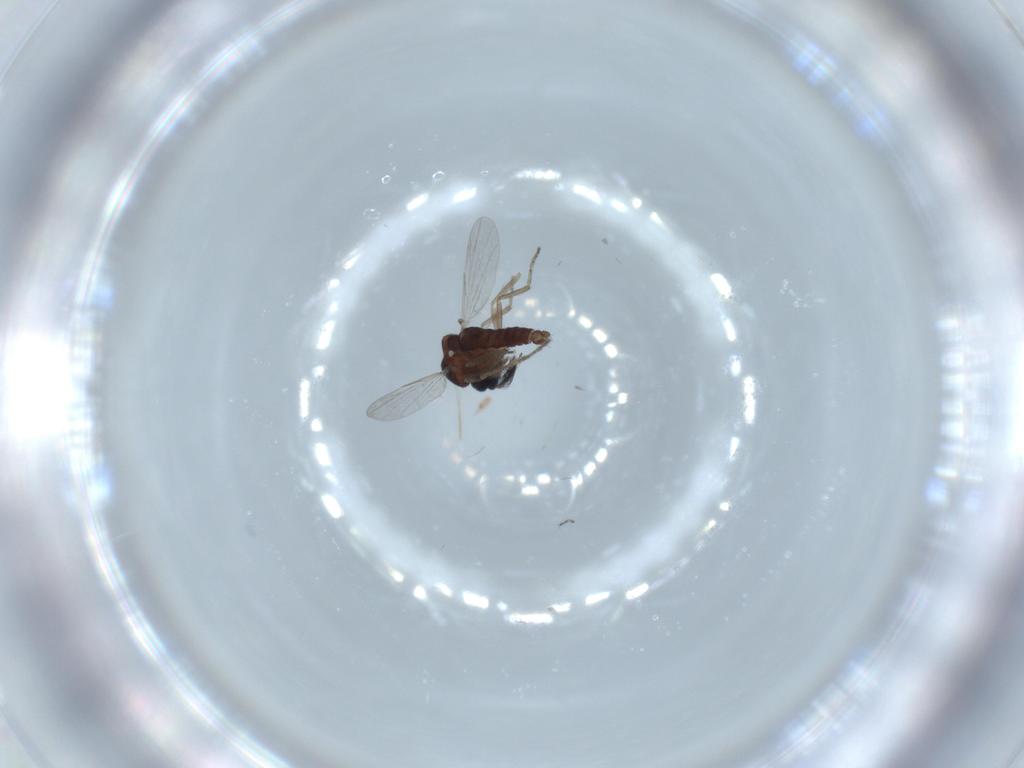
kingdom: Animalia
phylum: Arthropoda
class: Insecta
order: Diptera
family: Ceratopogonidae
